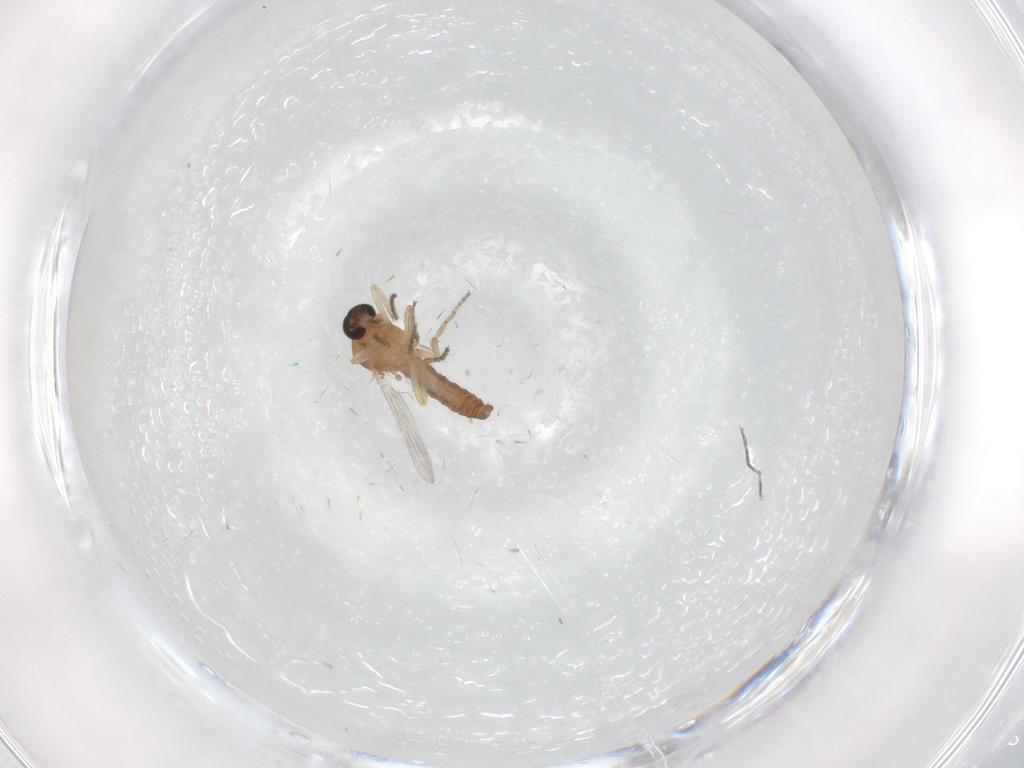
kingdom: Animalia
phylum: Arthropoda
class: Insecta
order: Diptera
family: Ceratopogonidae
